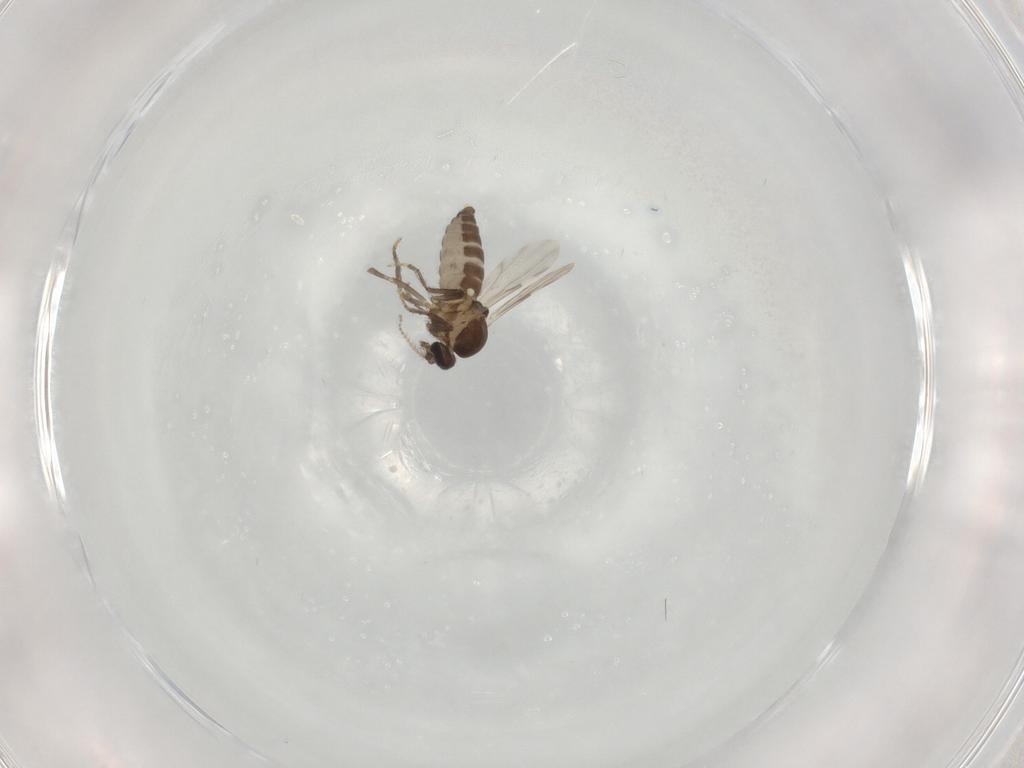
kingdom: Animalia
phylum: Arthropoda
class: Insecta
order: Diptera
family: Ceratopogonidae
